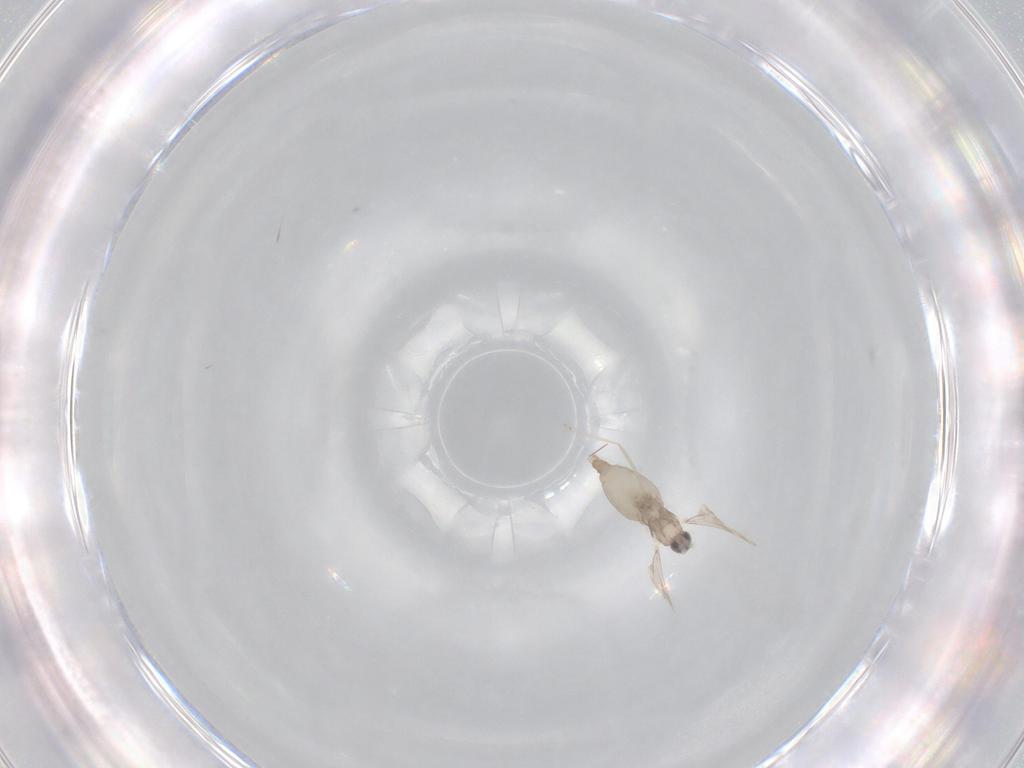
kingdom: Animalia
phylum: Arthropoda
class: Insecta
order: Diptera
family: Cecidomyiidae
